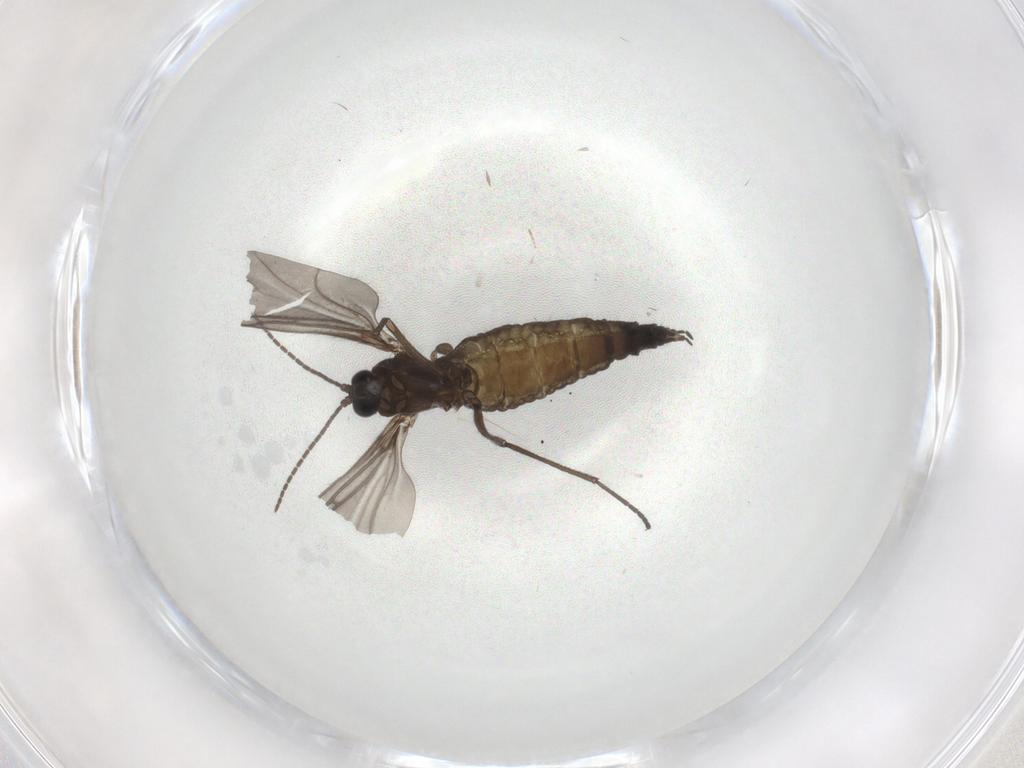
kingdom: Animalia
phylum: Arthropoda
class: Insecta
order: Diptera
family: Sciaridae
